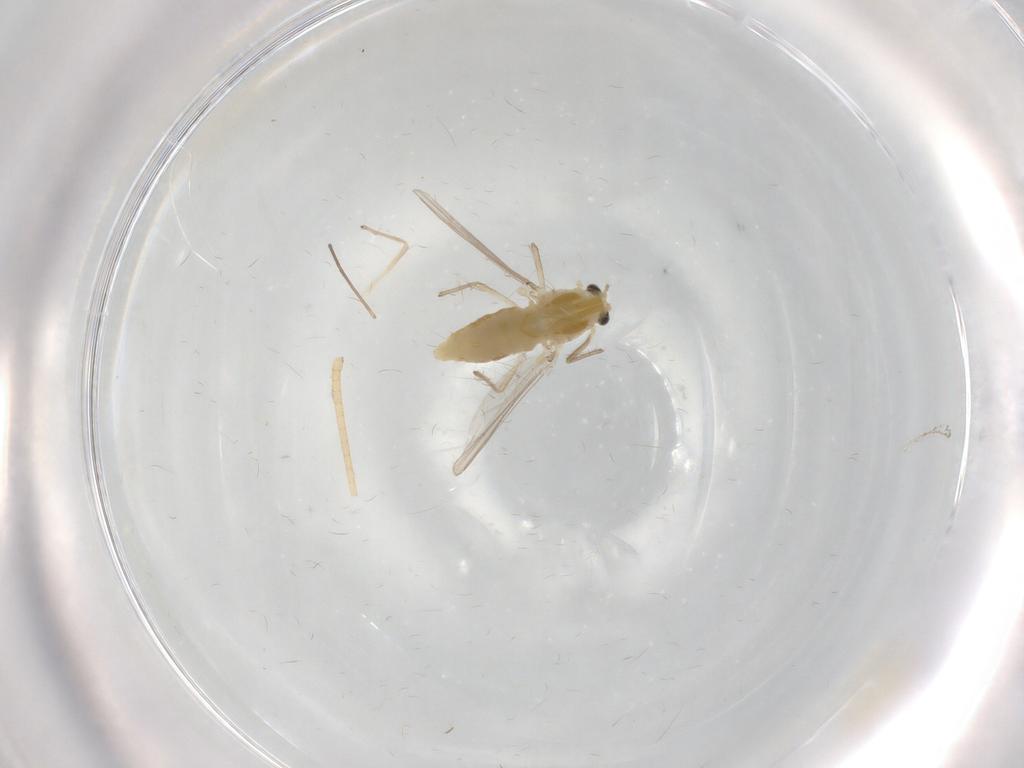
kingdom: Animalia
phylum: Arthropoda
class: Insecta
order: Diptera
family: Chironomidae
